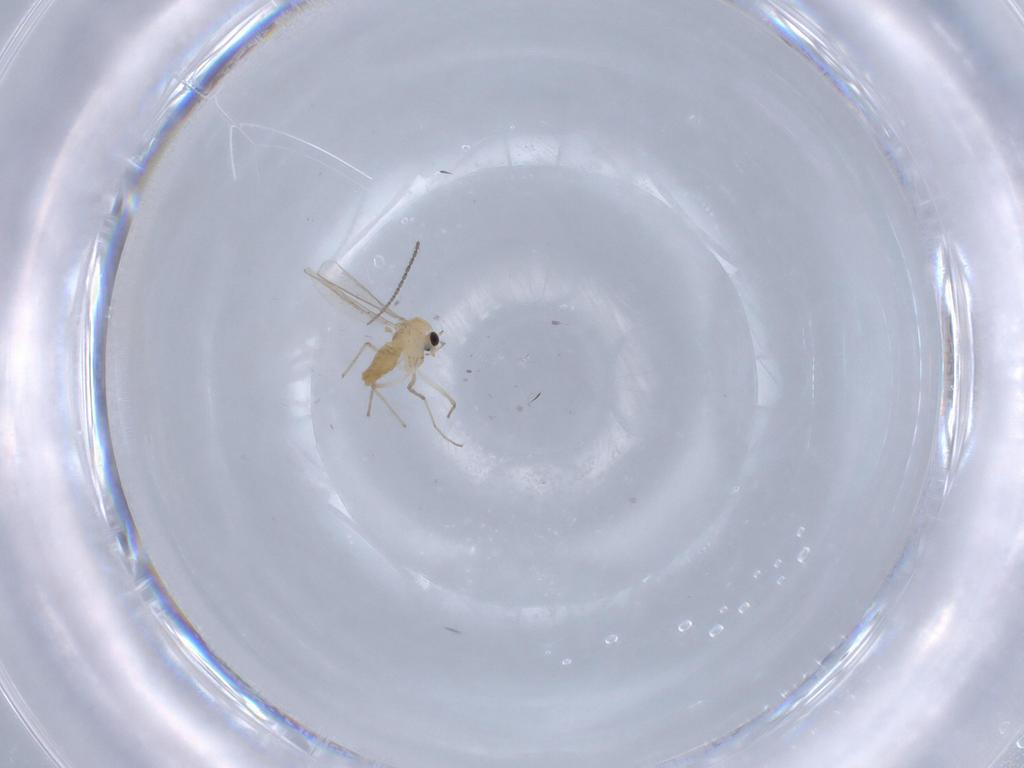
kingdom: Animalia
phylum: Arthropoda
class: Insecta
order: Diptera
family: Chironomidae
